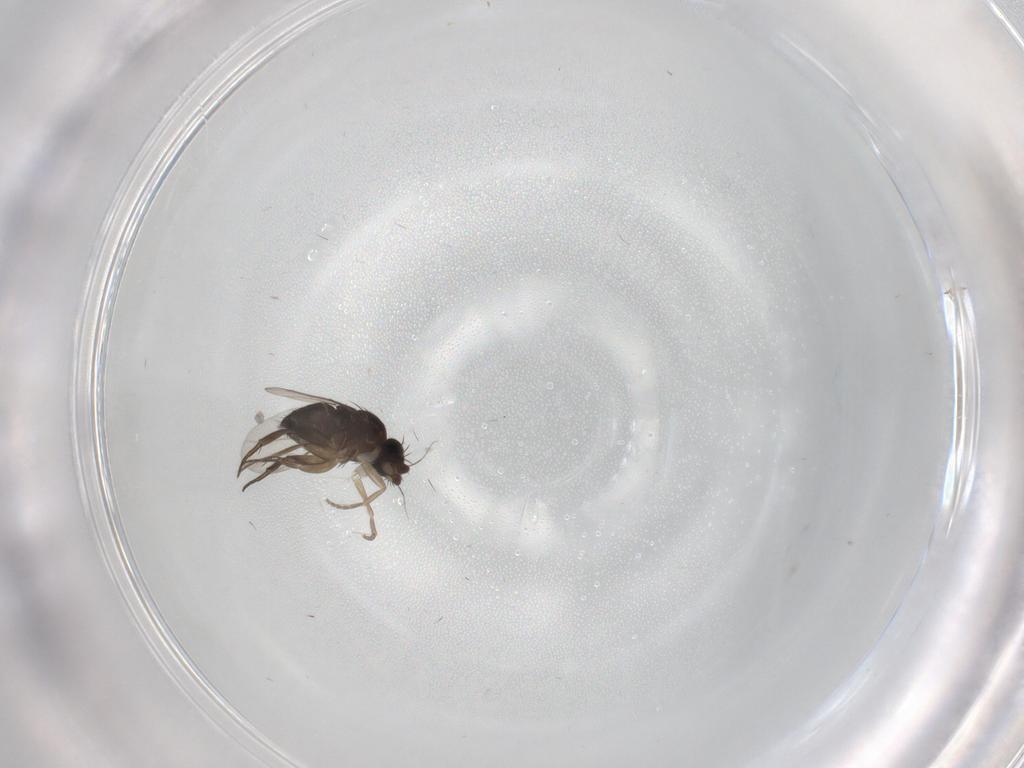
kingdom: Animalia
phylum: Arthropoda
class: Insecta
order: Diptera
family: Phoridae
